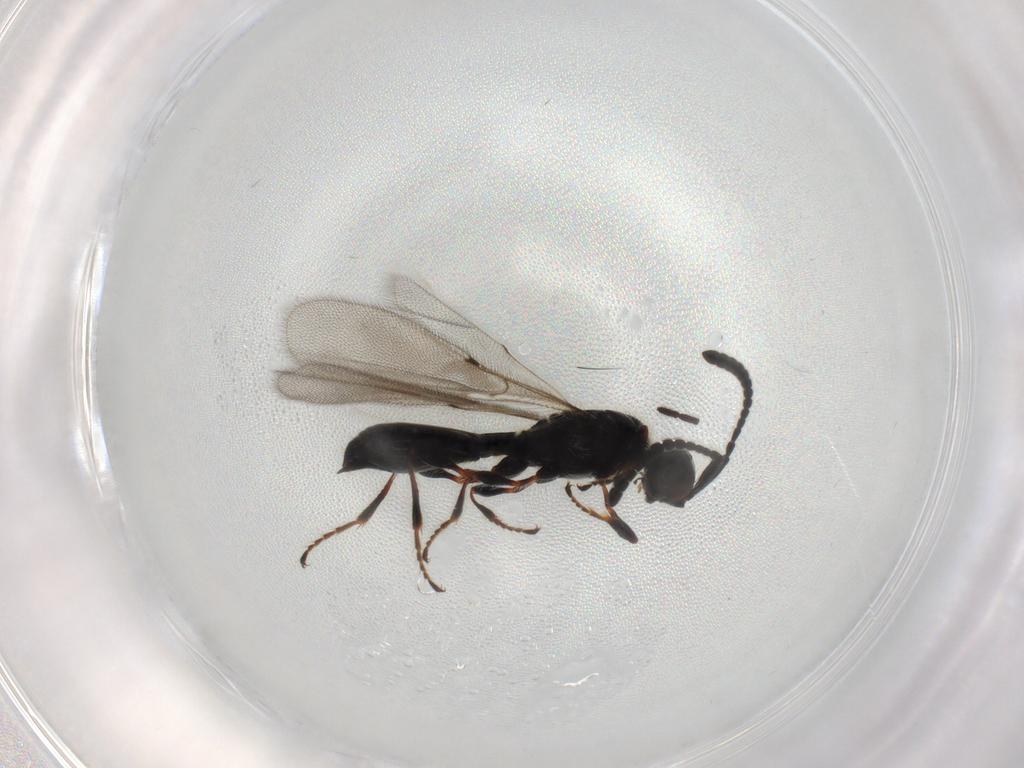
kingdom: Animalia
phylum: Arthropoda
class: Insecta
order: Hymenoptera
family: Diapriidae
